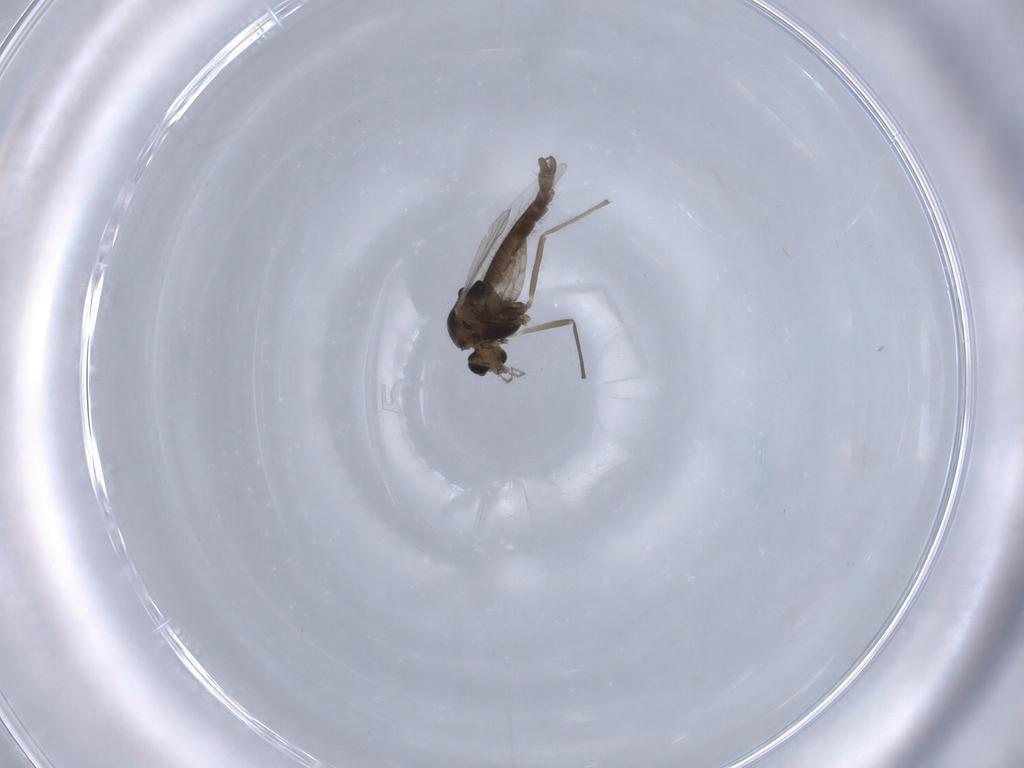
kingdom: Animalia
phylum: Arthropoda
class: Insecta
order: Diptera
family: Chironomidae
